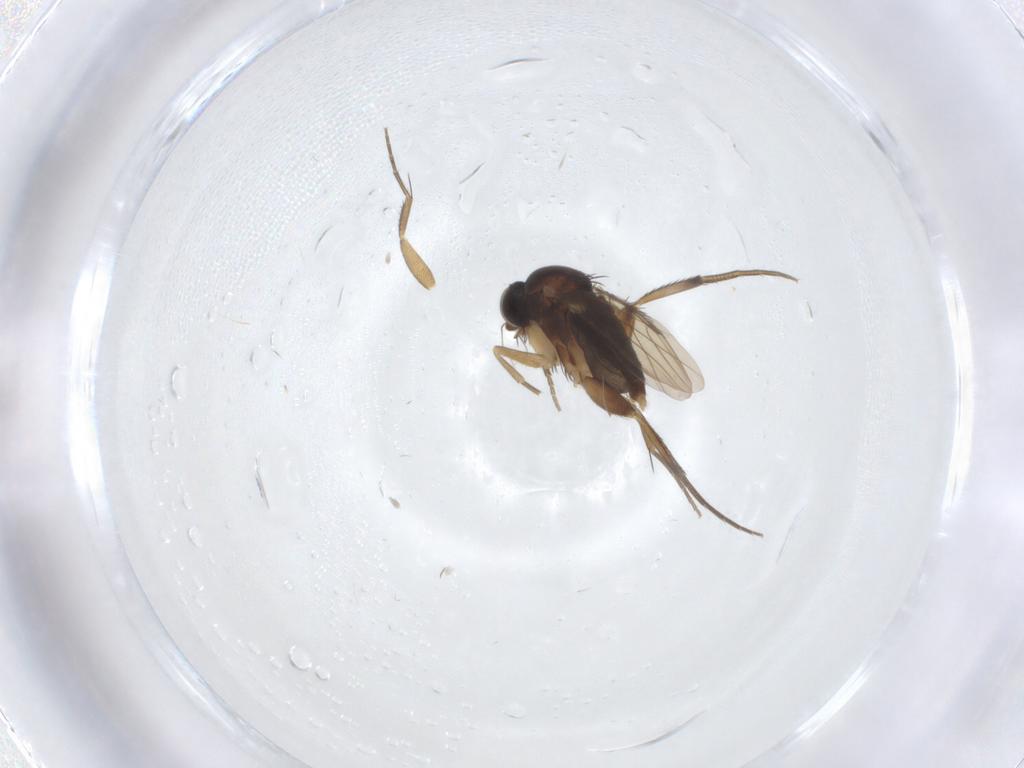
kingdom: Animalia
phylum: Arthropoda
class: Insecta
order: Diptera
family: Phoridae
